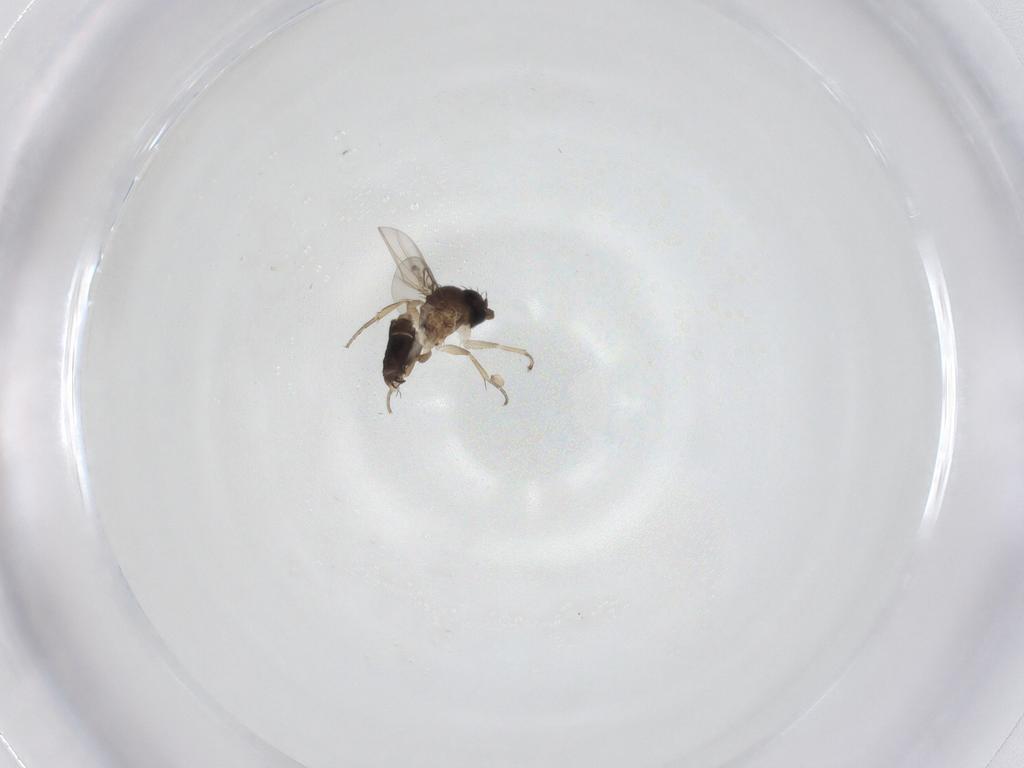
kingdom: Animalia
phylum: Arthropoda
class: Insecta
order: Diptera
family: Phoridae
